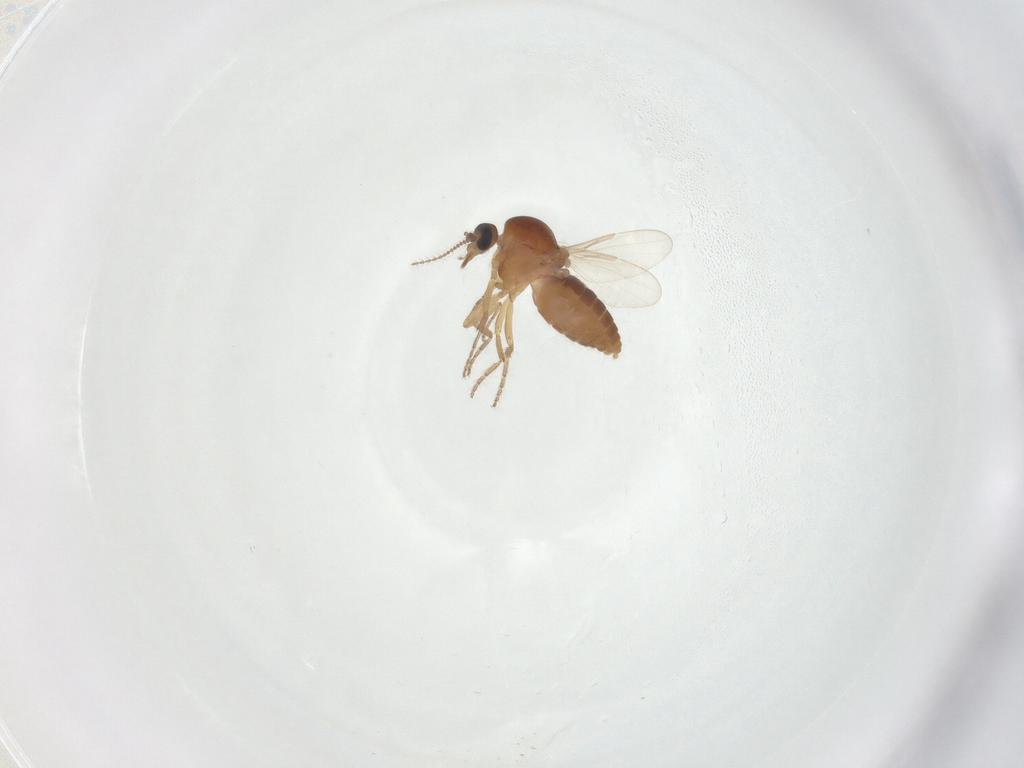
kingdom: Animalia
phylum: Arthropoda
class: Insecta
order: Diptera
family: Ceratopogonidae
